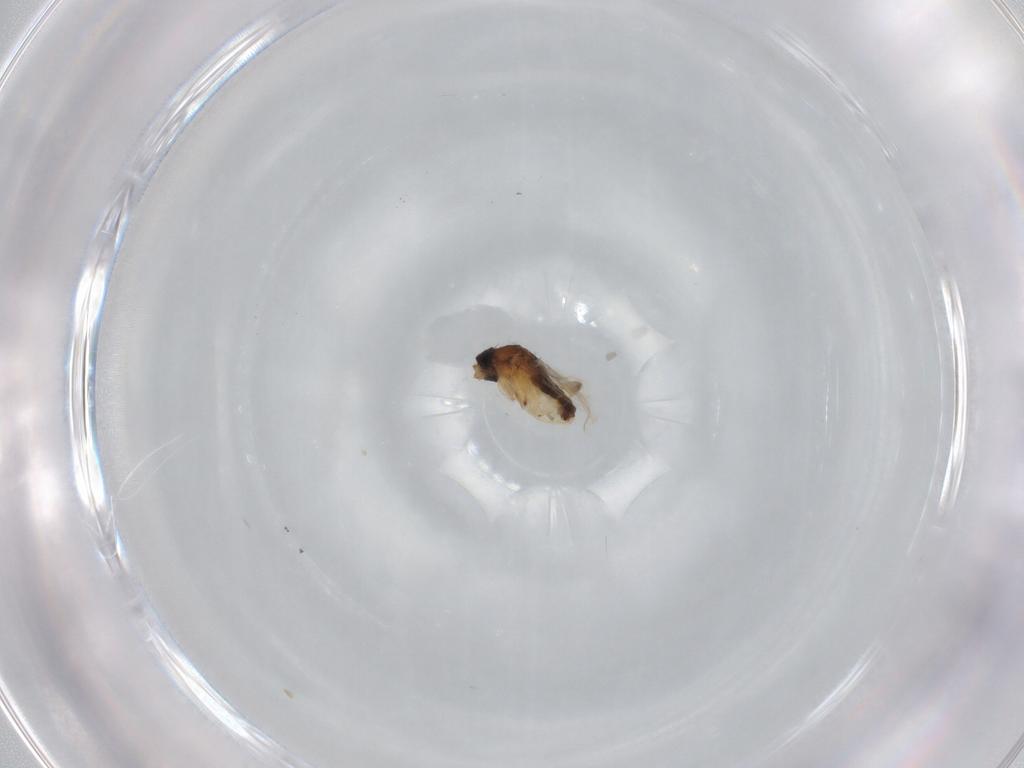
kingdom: Animalia
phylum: Arthropoda
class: Insecta
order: Diptera
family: Phoridae
